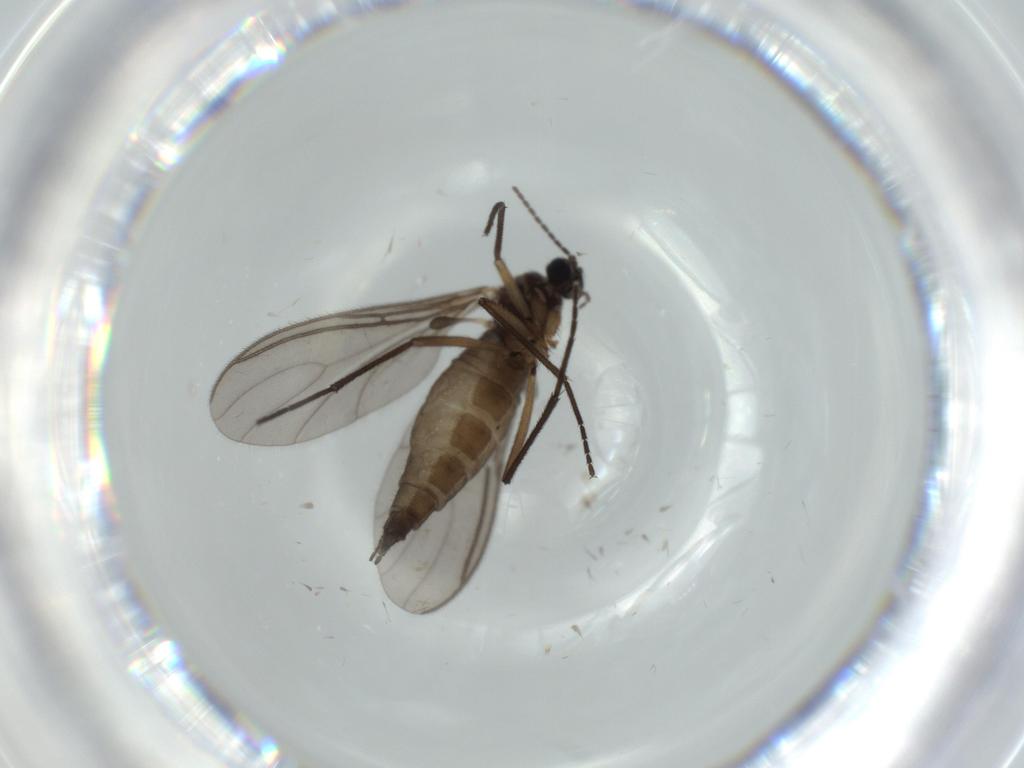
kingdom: Animalia
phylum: Arthropoda
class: Insecta
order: Diptera
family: Sciaridae
